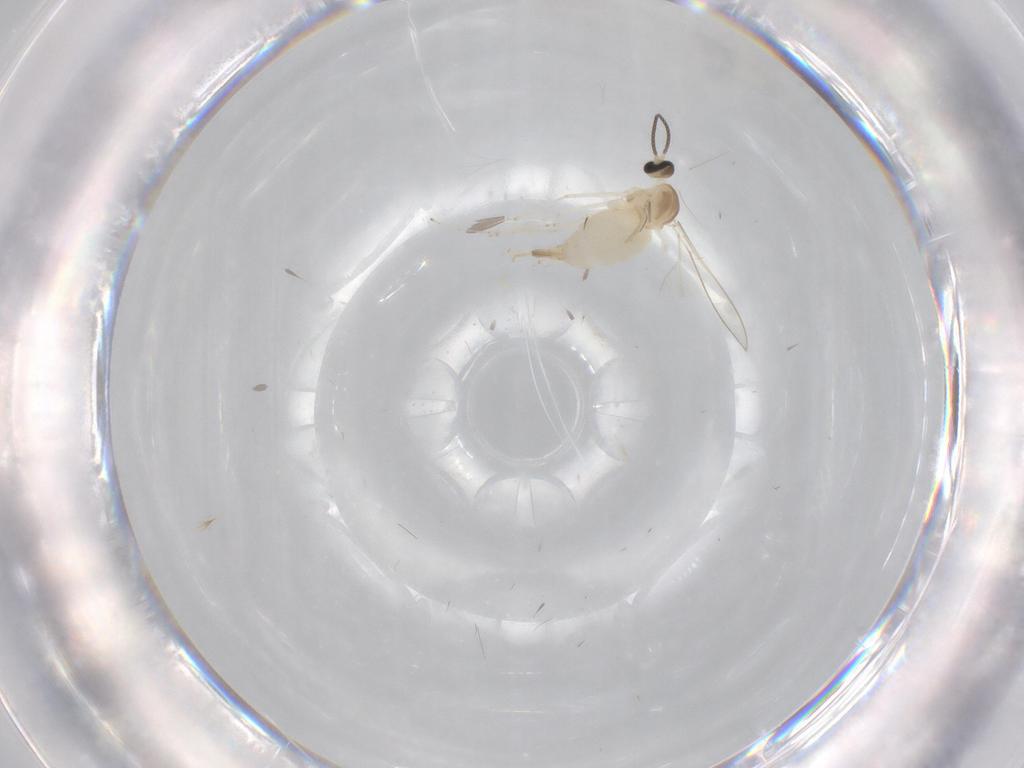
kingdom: Animalia
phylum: Arthropoda
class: Insecta
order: Diptera
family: Cecidomyiidae
